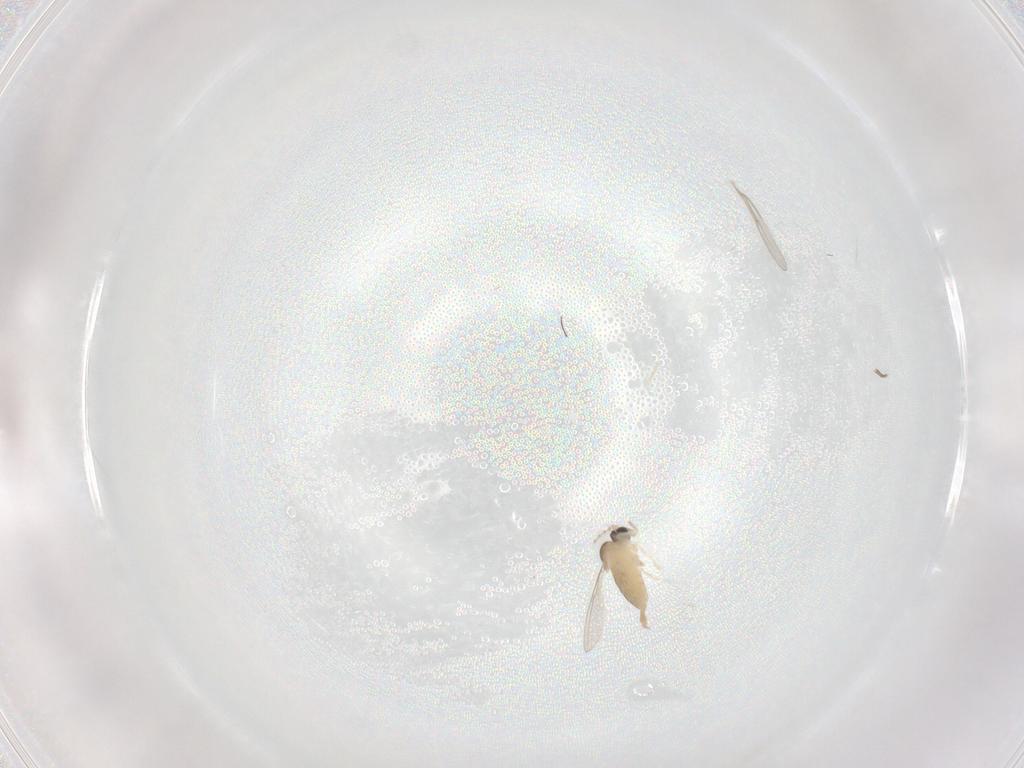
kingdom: Animalia
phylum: Arthropoda
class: Insecta
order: Diptera
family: Cecidomyiidae
